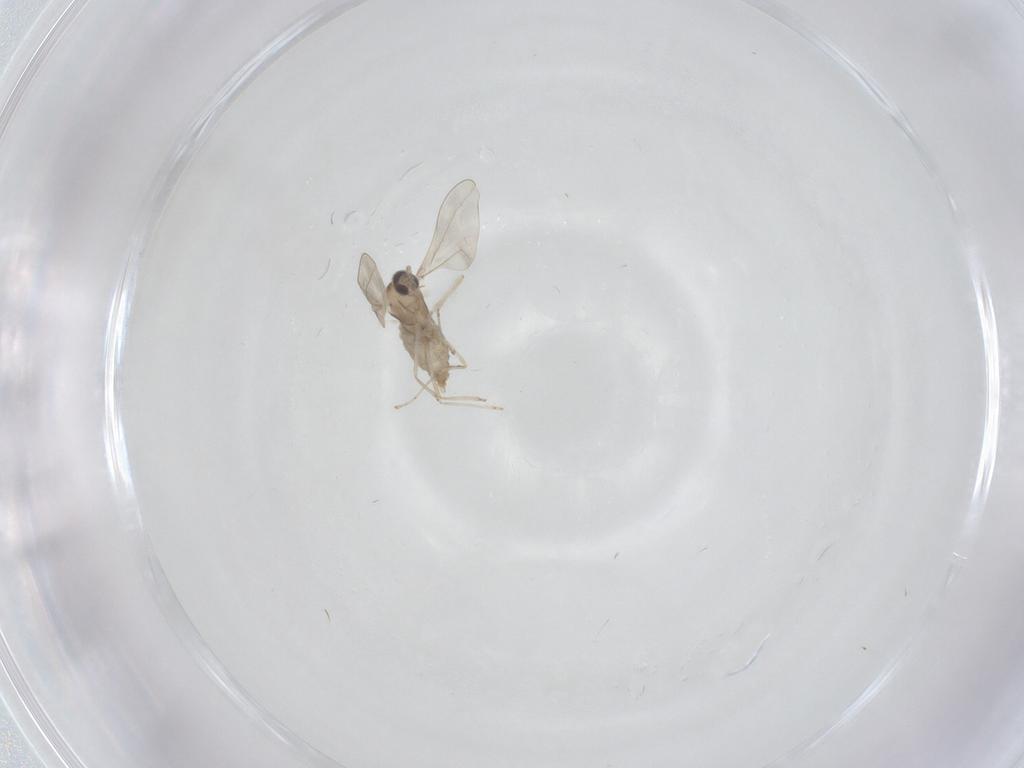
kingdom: Animalia
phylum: Arthropoda
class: Insecta
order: Diptera
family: Cecidomyiidae
